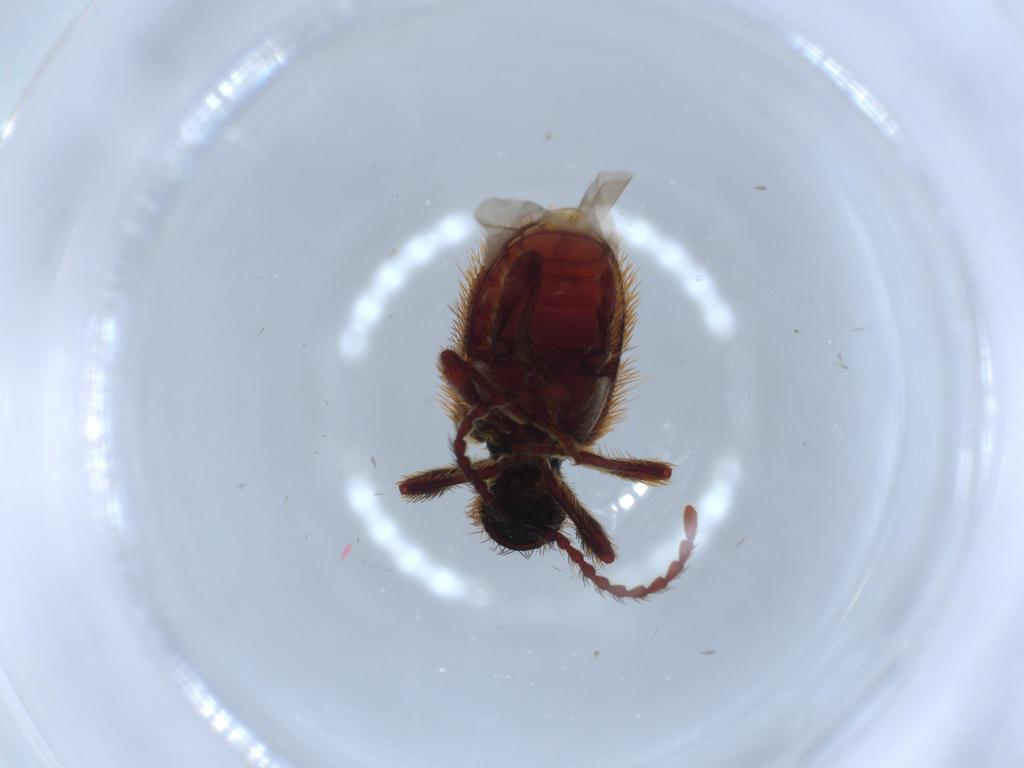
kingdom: Animalia
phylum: Arthropoda
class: Insecta
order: Coleoptera
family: Ptinidae
